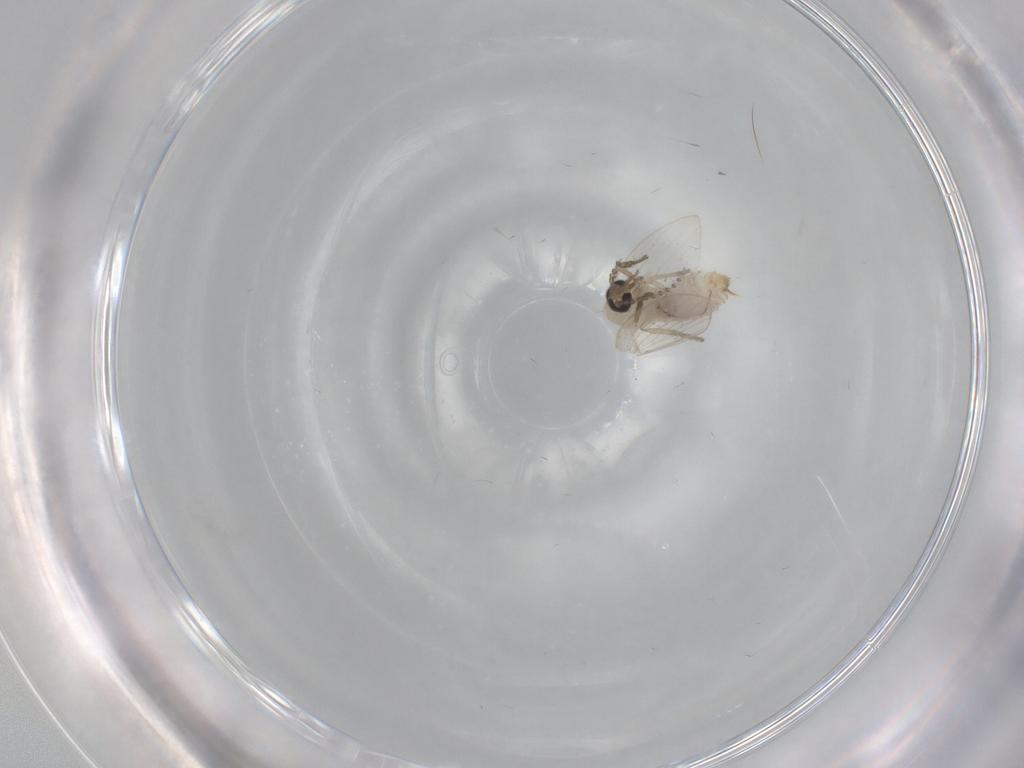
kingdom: Animalia
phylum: Arthropoda
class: Insecta
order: Diptera
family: Psychodidae
